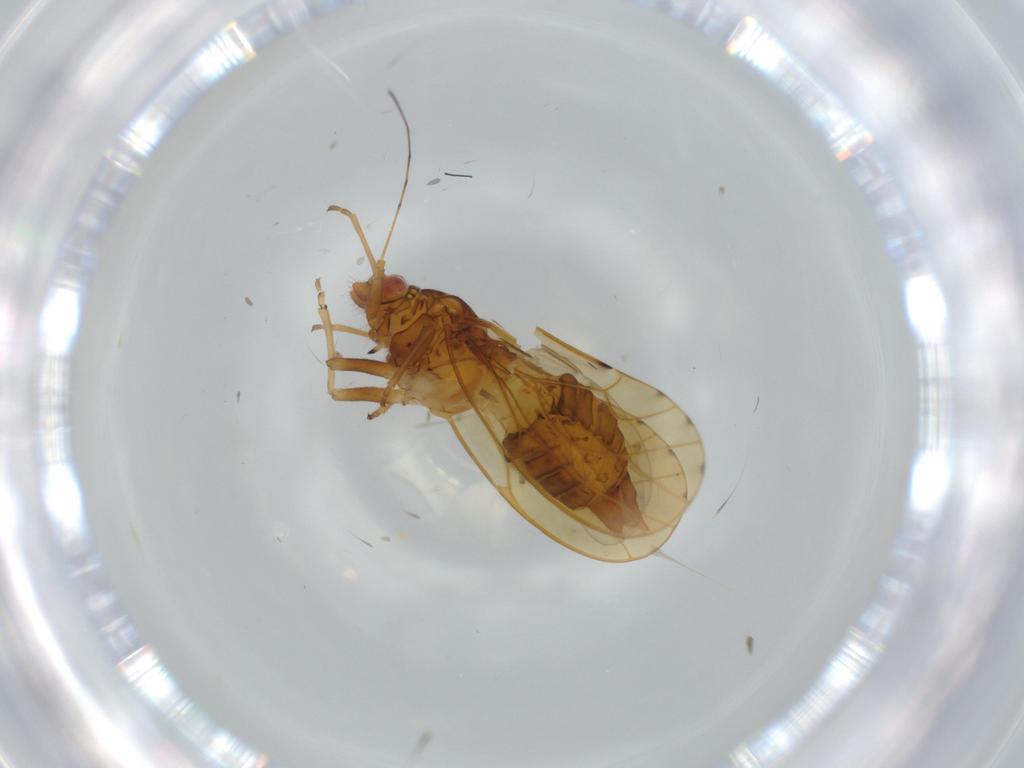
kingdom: Animalia
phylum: Arthropoda
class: Insecta
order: Hemiptera
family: Psylloidea_incertae_sedis
